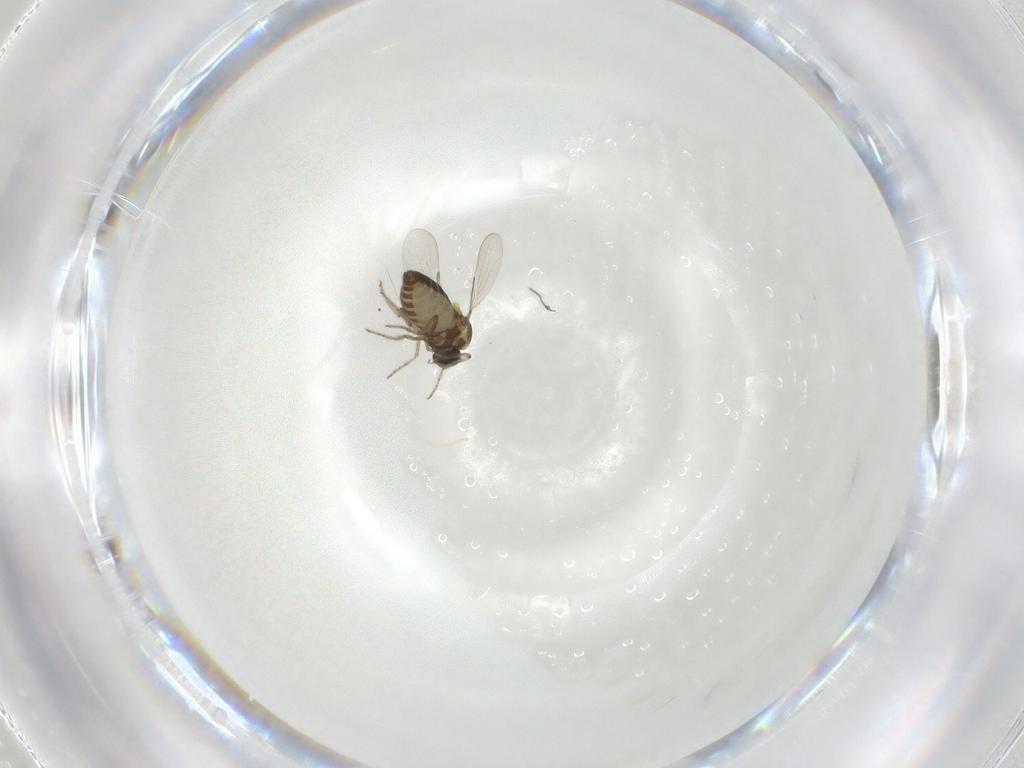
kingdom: Animalia
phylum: Arthropoda
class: Insecta
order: Diptera
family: Ceratopogonidae
